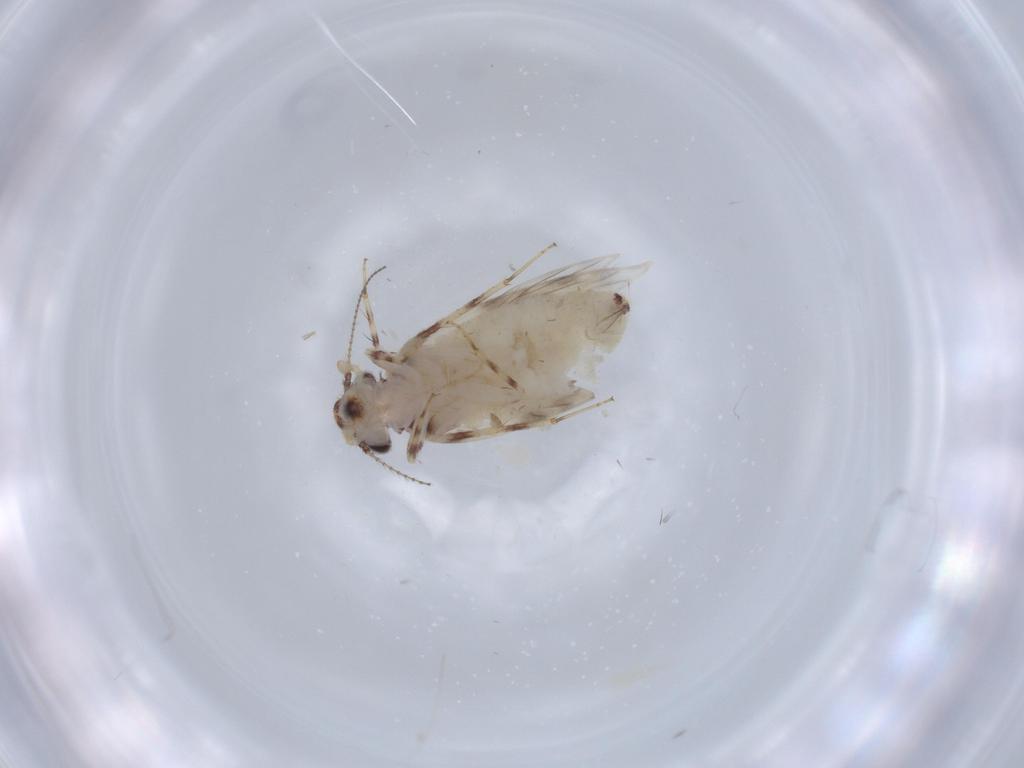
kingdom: Animalia
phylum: Arthropoda
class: Insecta
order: Psocodea
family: Lepidopsocidae
